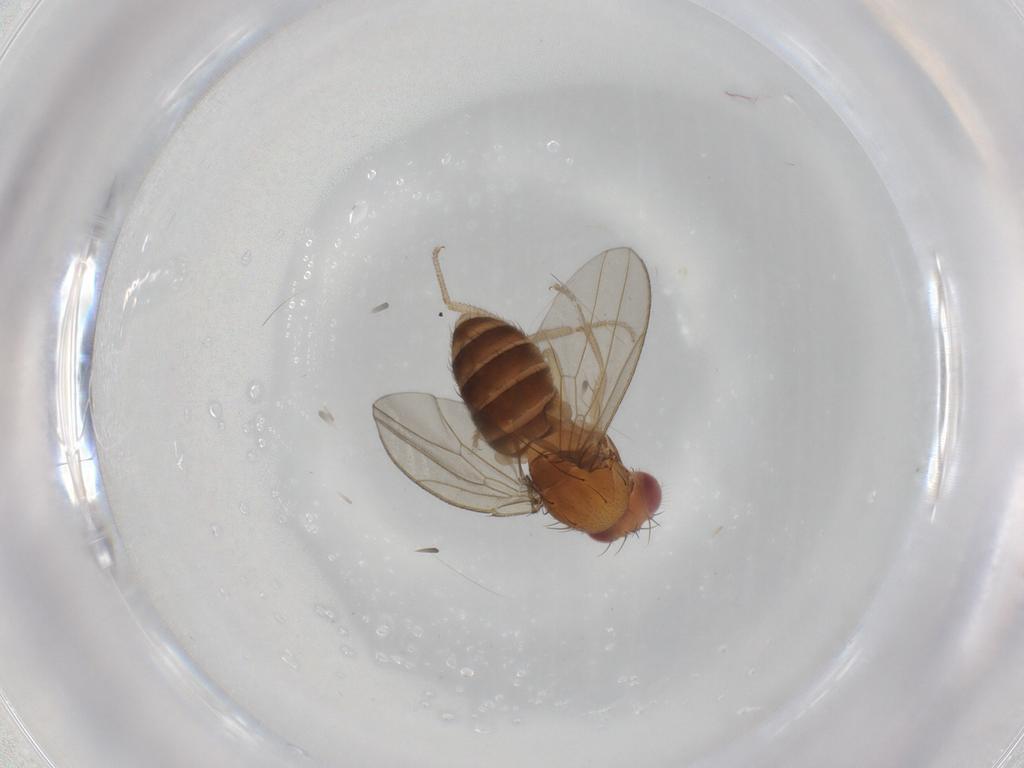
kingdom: Animalia
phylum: Arthropoda
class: Insecta
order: Diptera
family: Drosophilidae
